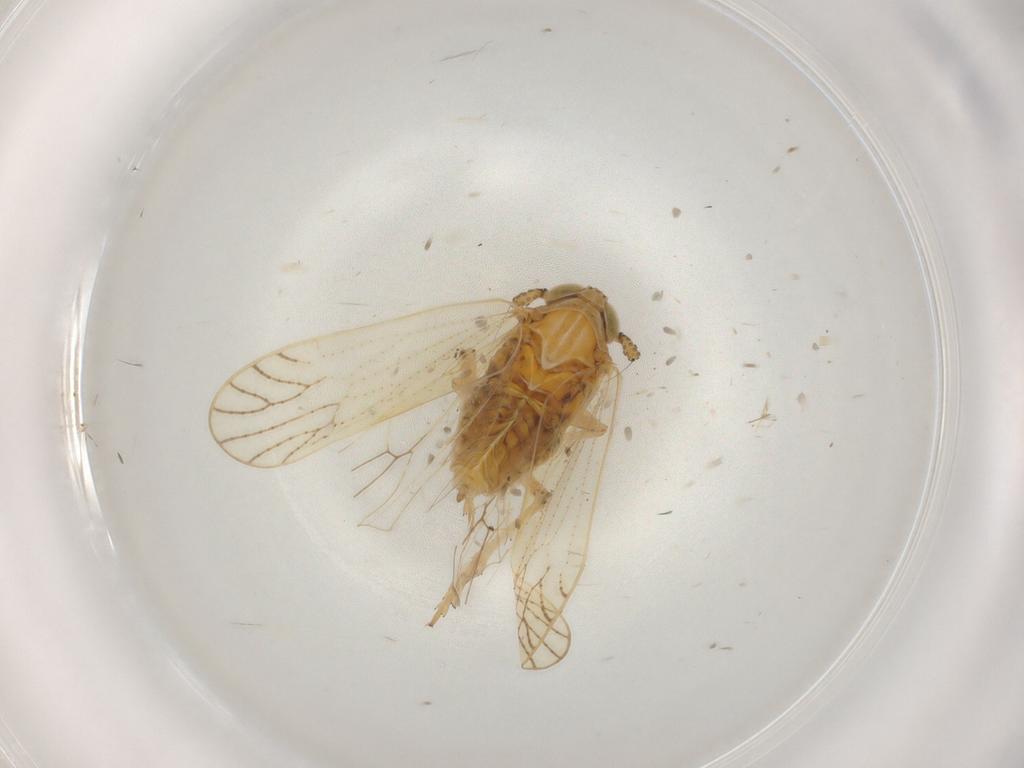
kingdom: Animalia
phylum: Arthropoda
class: Insecta
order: Hemiptera
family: Delphacidae
